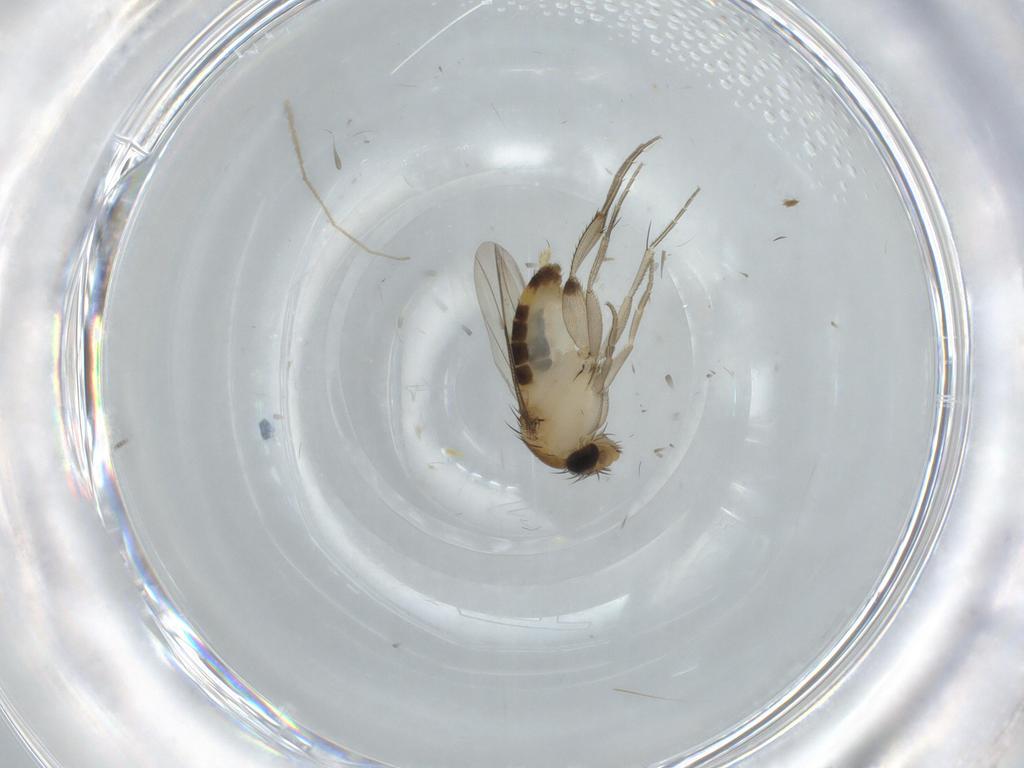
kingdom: Animalia
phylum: Arthropoda
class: Insecta
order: Diptera
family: Phoridae
